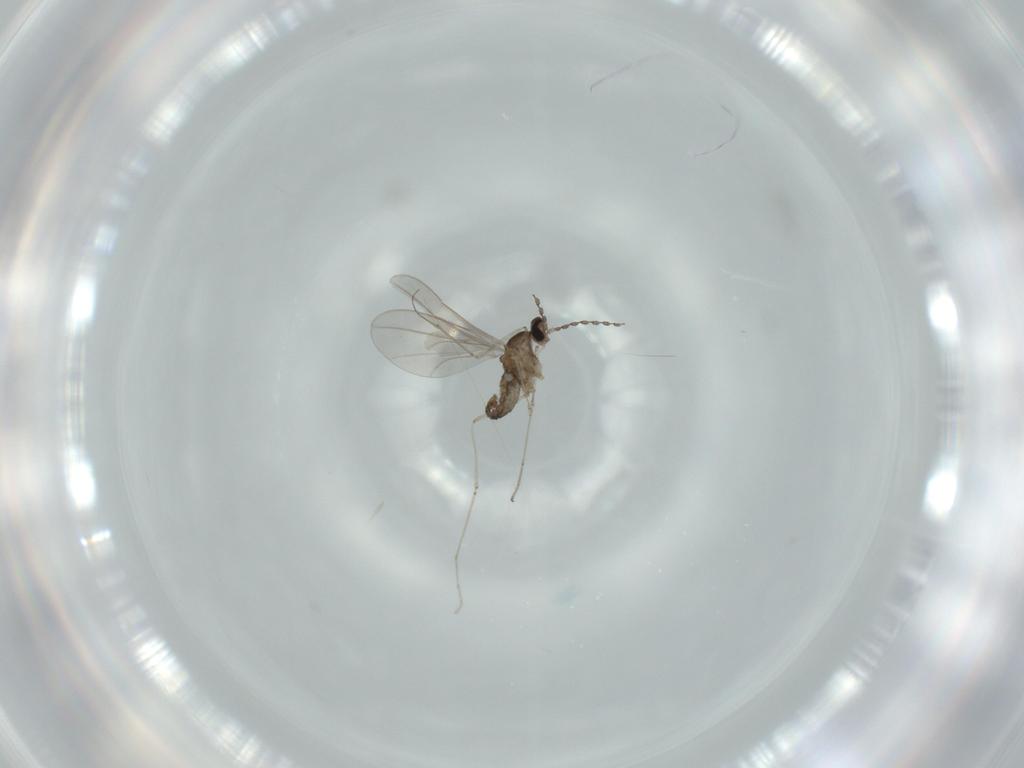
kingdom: Animalia
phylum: Arthropoda
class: Insecta
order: Diptera
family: Cecidomyiidae
